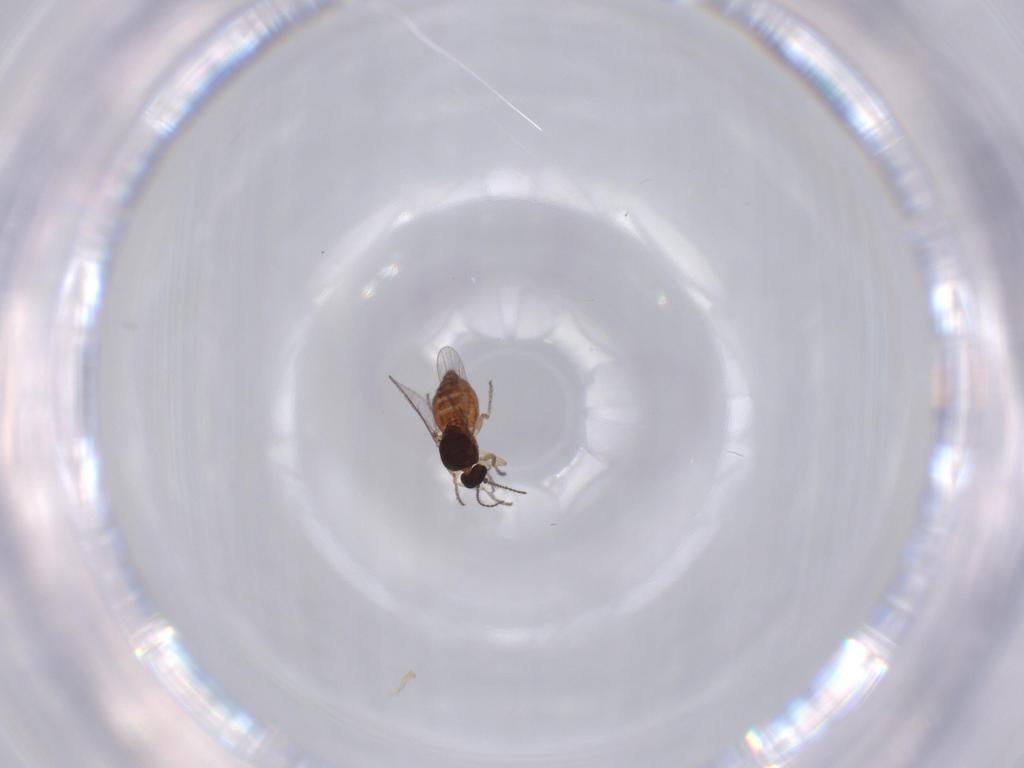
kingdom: Animalia
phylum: Arthropoda
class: Insecta
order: Diptera
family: Ceratopogonidae
